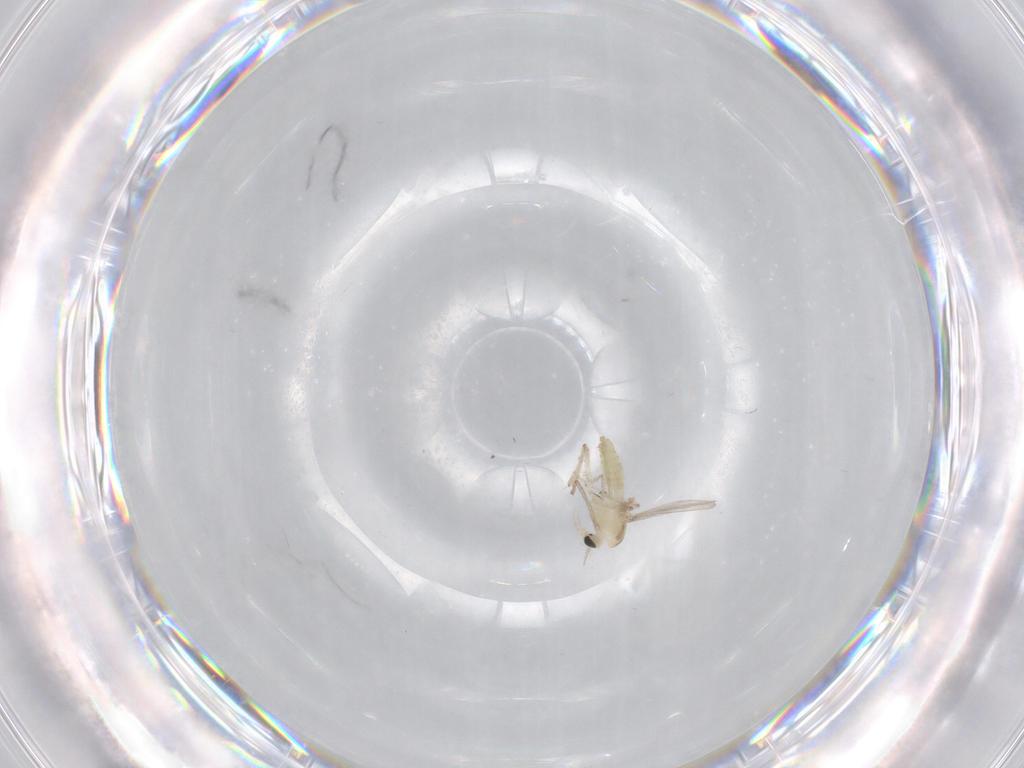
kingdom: Animalia
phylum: Arthropoda
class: Insecta
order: Diptera
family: Chironomidae
